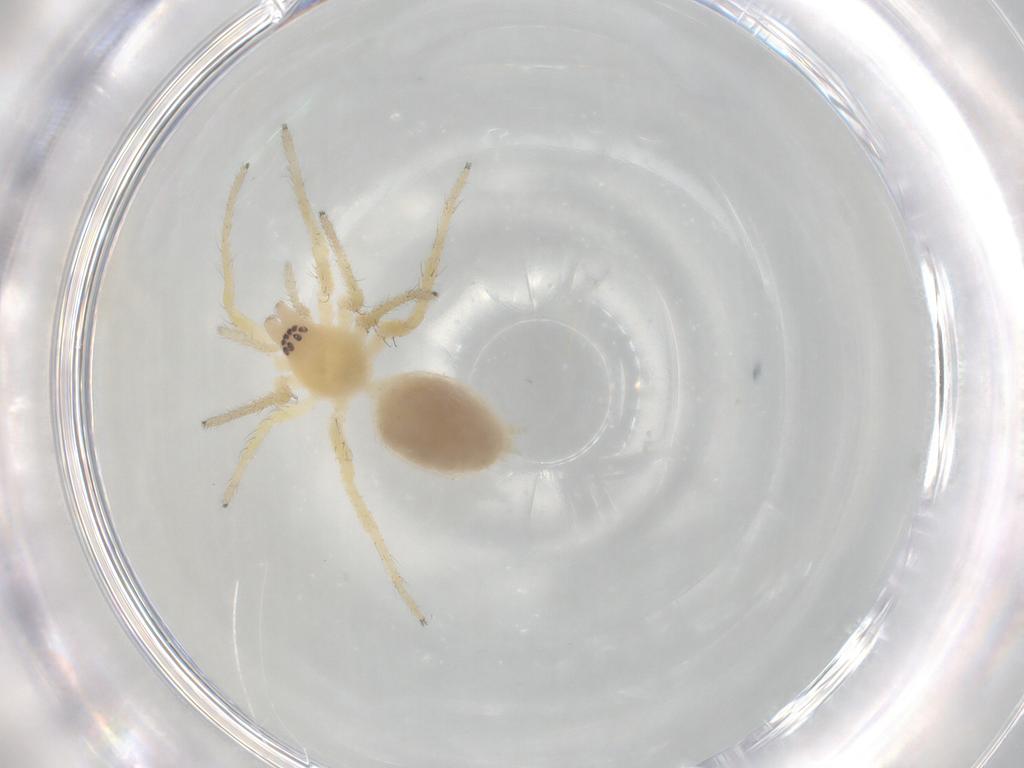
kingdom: Animalia
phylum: Arthropoda
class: Arachnida
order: Araneae
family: Anyphaenidae
